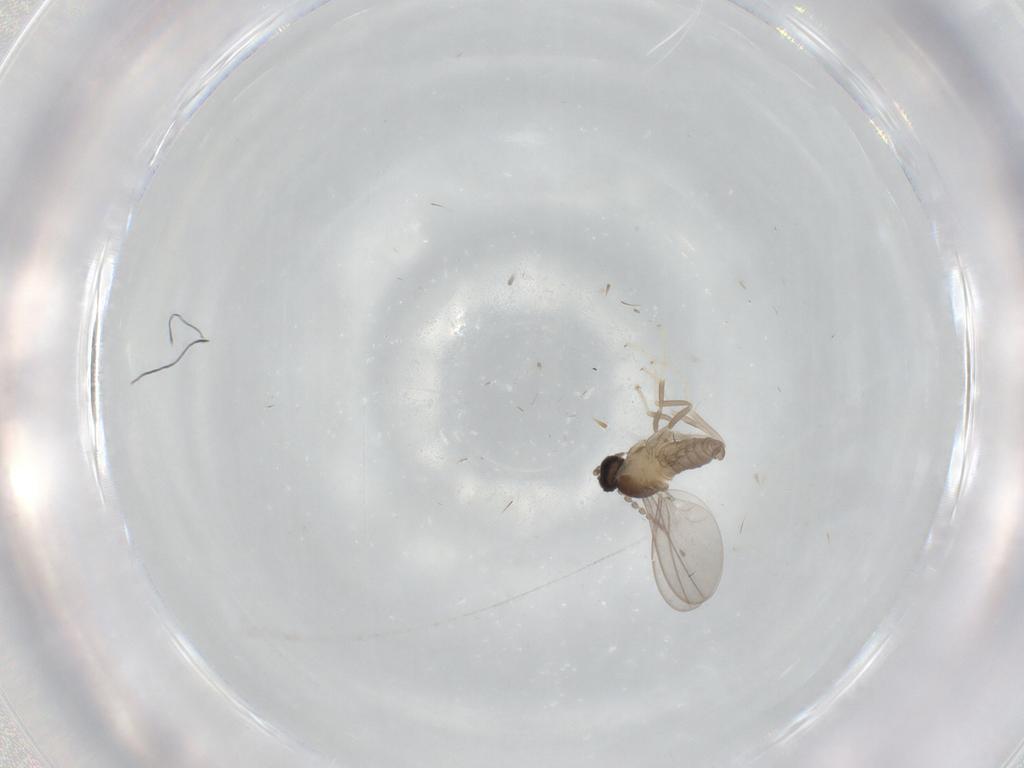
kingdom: Animalia
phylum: Arthropoda
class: Insecta
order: Diptera
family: Cecidomyiidae
